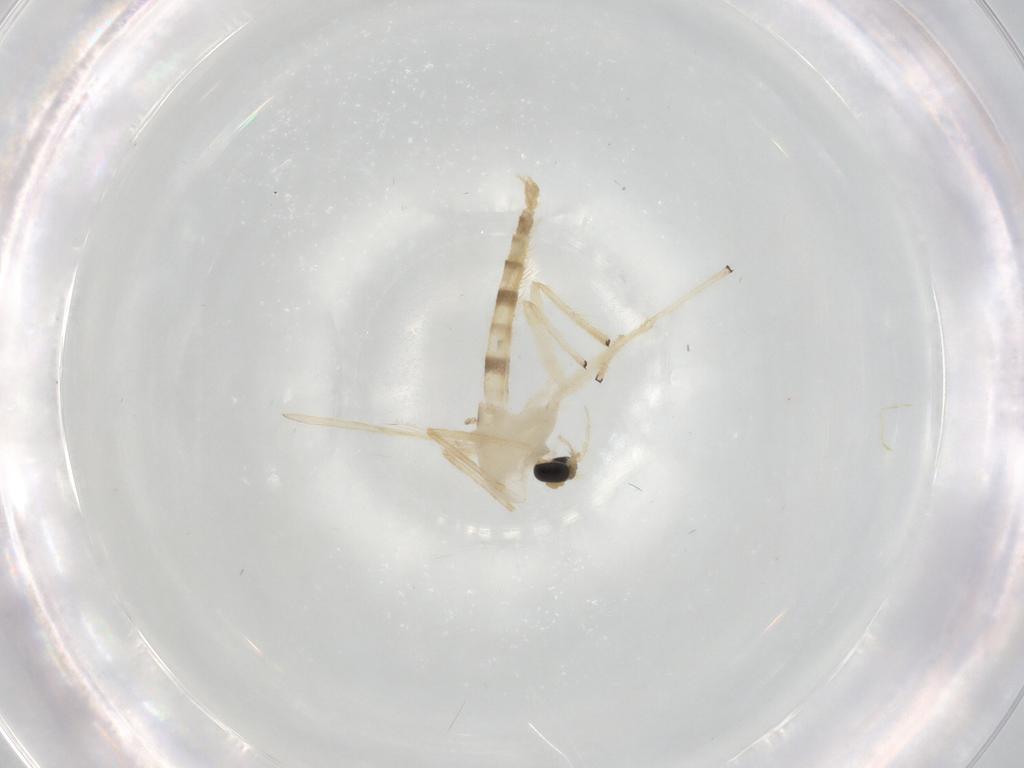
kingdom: Animalia
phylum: Arthropoda
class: Insecta
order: Diptera
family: Chironomidae
